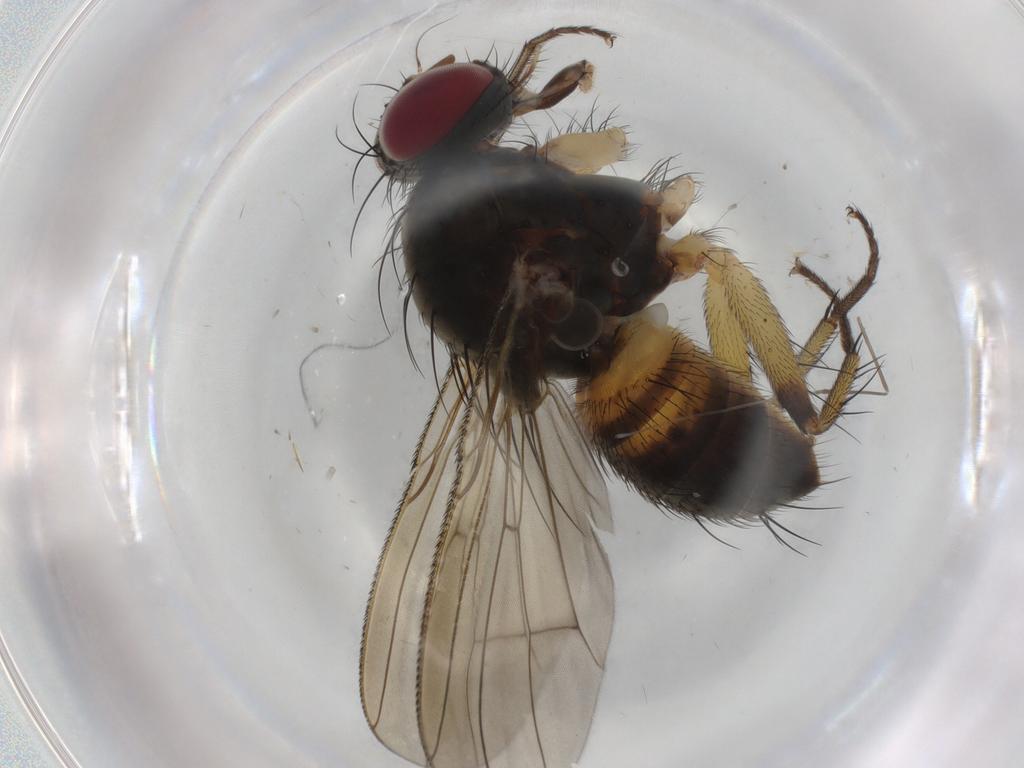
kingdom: Animalia
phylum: Arthropoda
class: Insecta
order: Diptera
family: Muscidae
